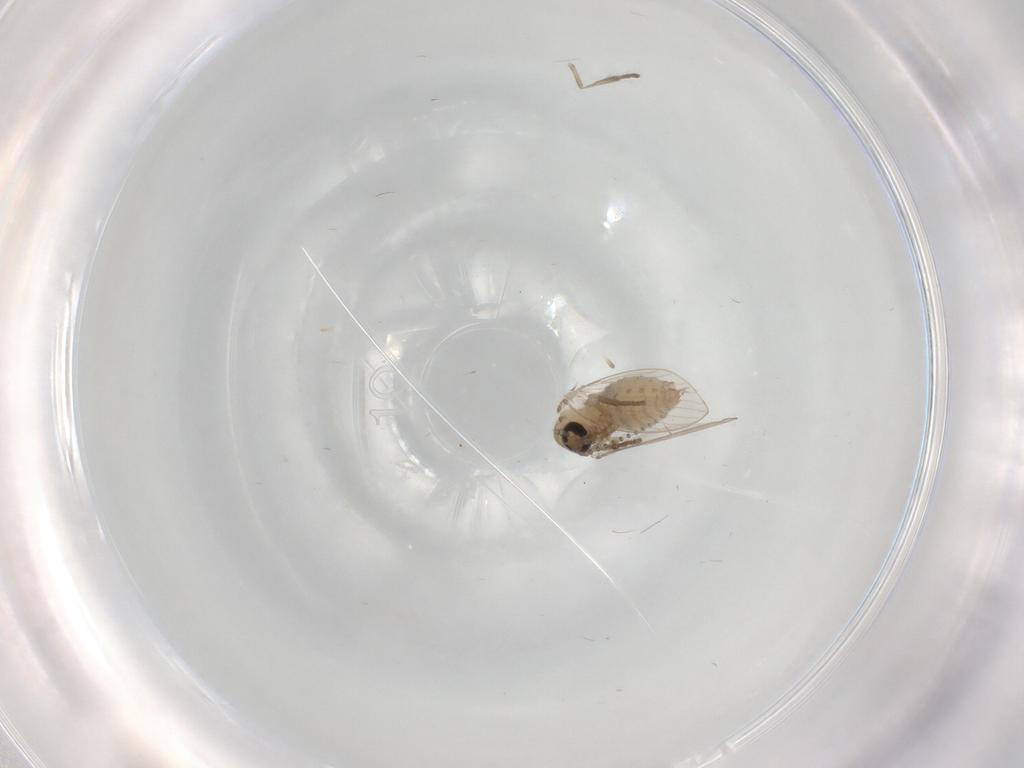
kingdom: Animalia
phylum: Arthropoda
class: Insecta
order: Diptera
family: Psychodidae
